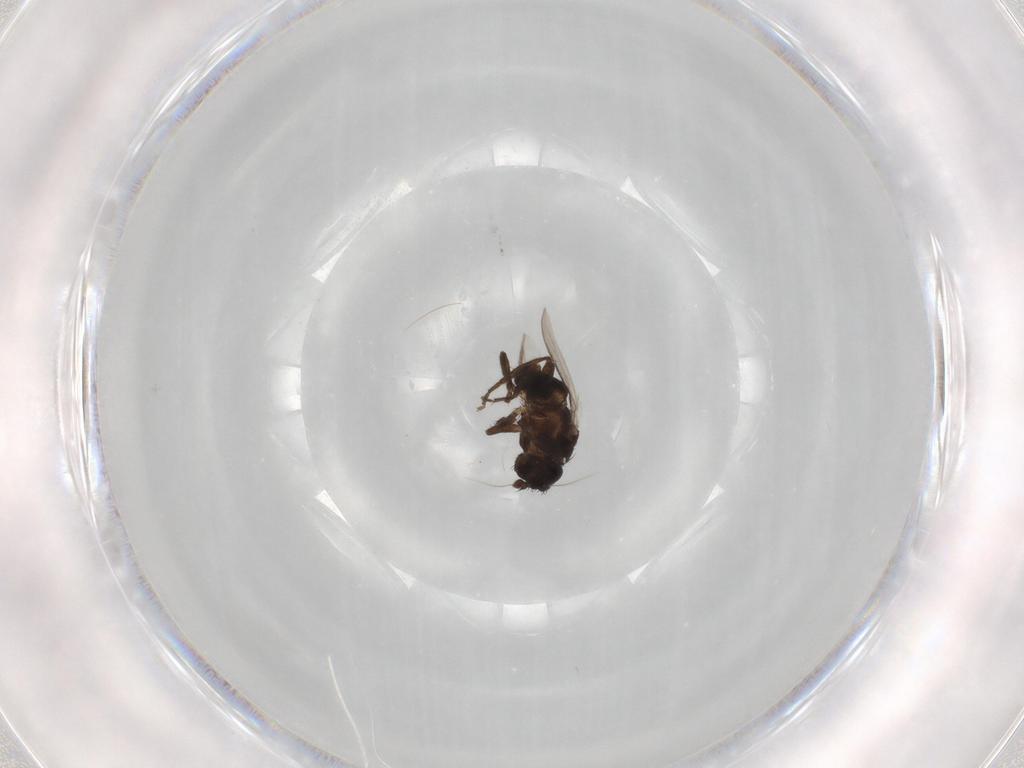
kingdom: Animalia
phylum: Arthropoda
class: Insecta
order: Diptera
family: Sphaeroceridae
